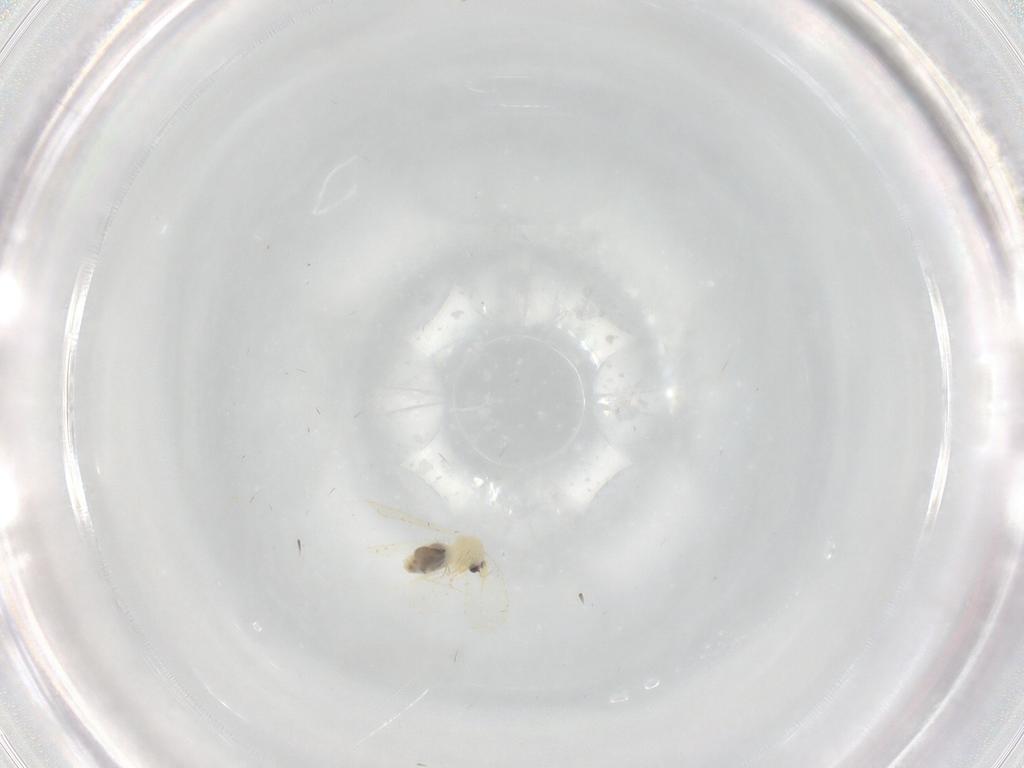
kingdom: Animalia
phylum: Arthropoda
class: Insecta
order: Hemiptera
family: Aleyrodidae
